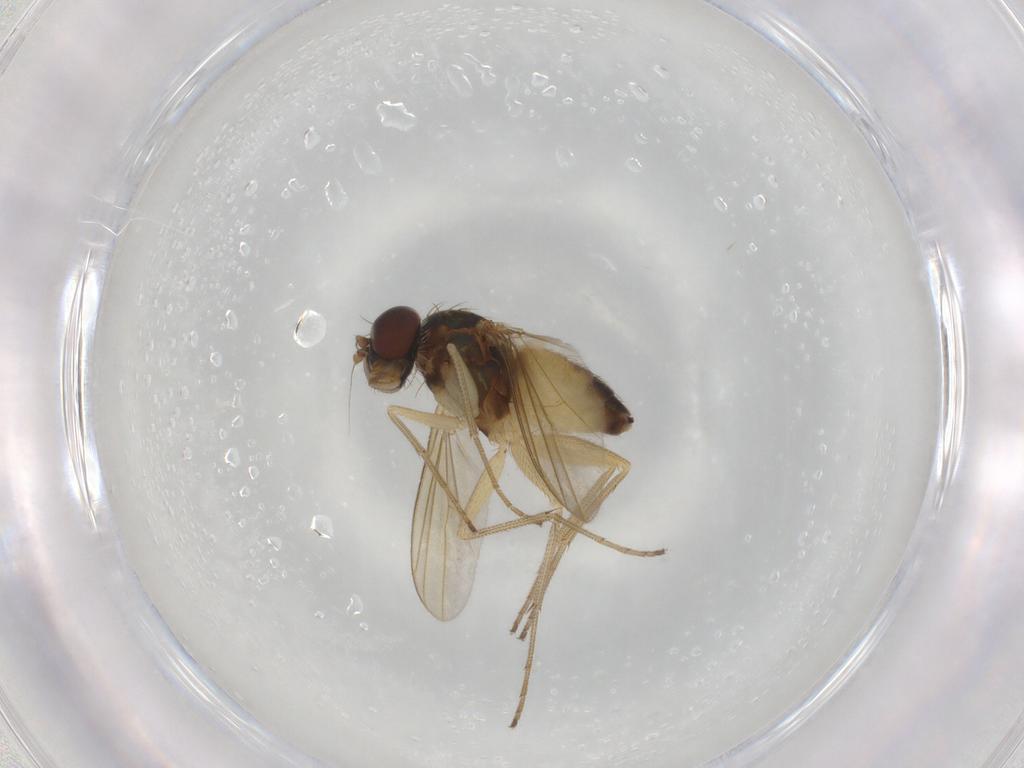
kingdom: Animalia
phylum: Arthropoda
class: Insecta
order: Diptera
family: Dolichopodidae
